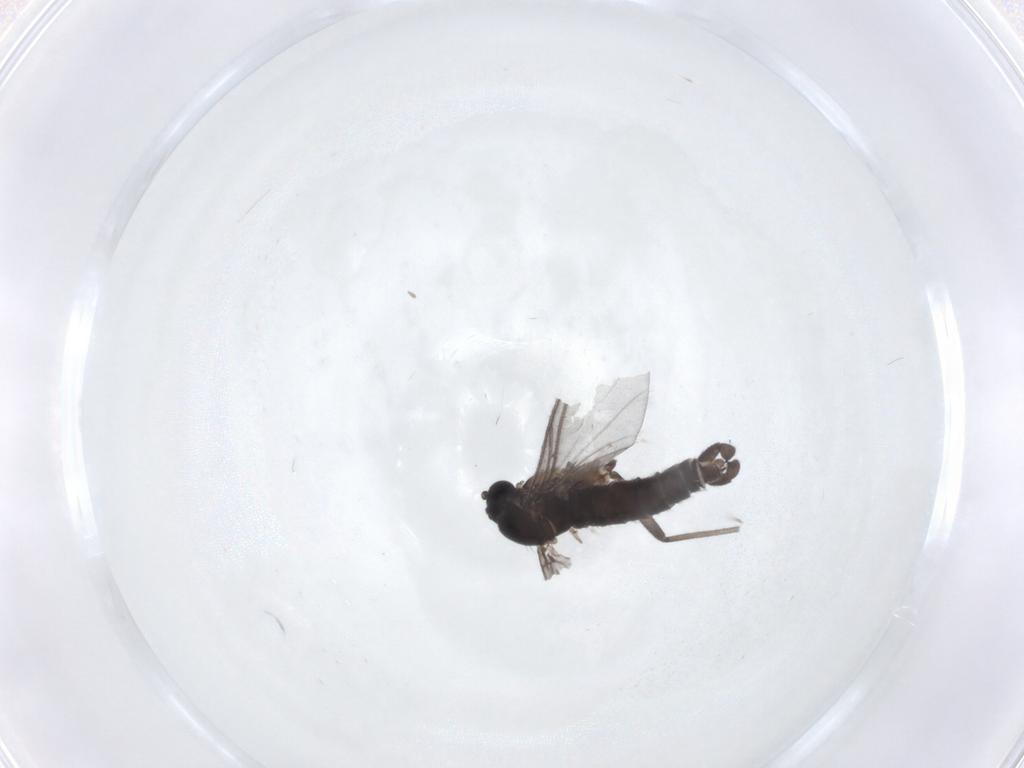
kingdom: Animalia
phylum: Arthropoda
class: Insecta
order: Diptera
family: Sciaridae
